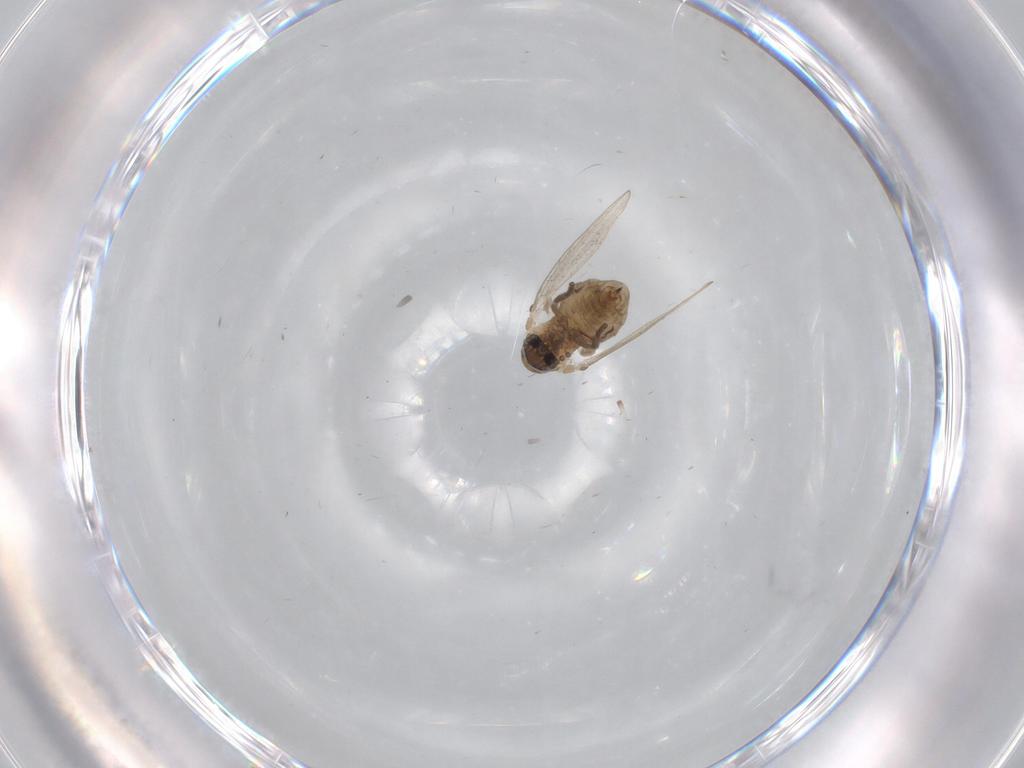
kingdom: Animalia
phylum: Arthropoda
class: Insecta
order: Diptera
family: Psychodidae
